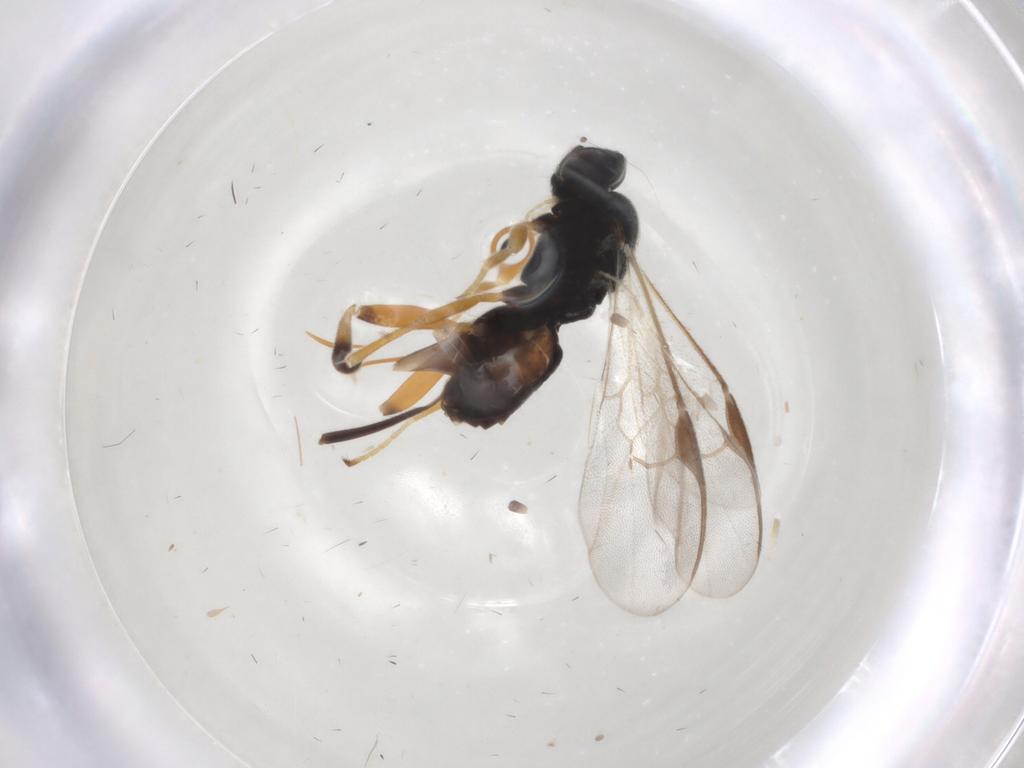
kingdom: Animalia
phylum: Arthropoda
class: Insecta
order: Hymenoptera
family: Braconidae
